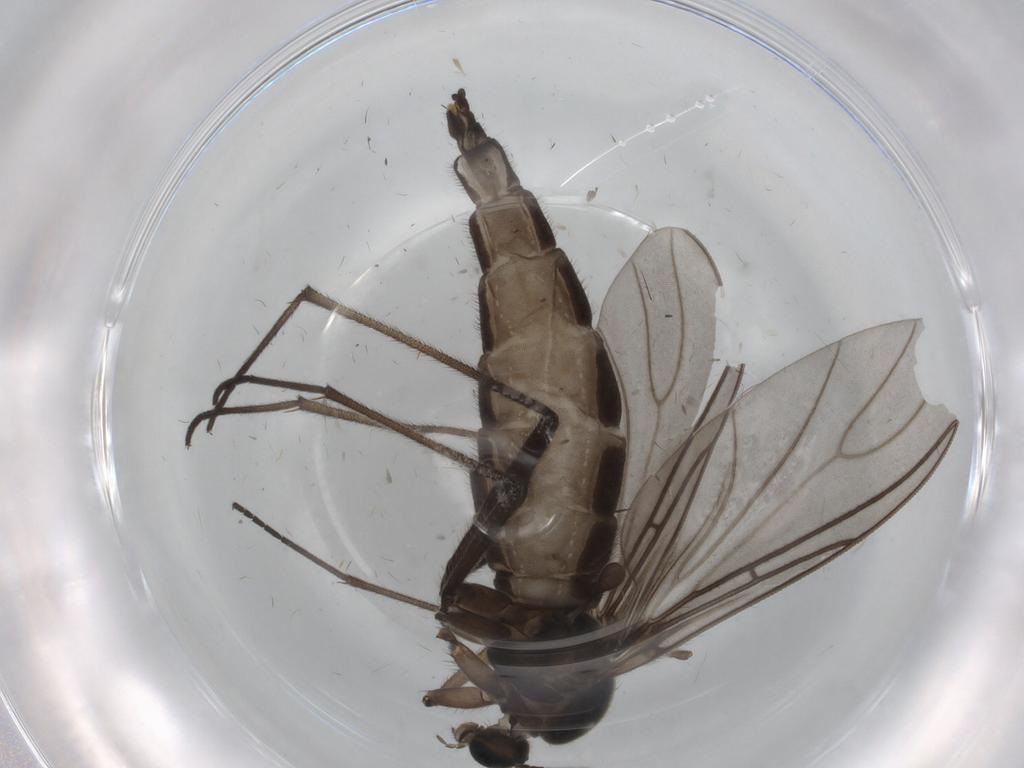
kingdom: Animalia
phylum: Arthropoda
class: Insecta
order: Diptera
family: Sciaridae
